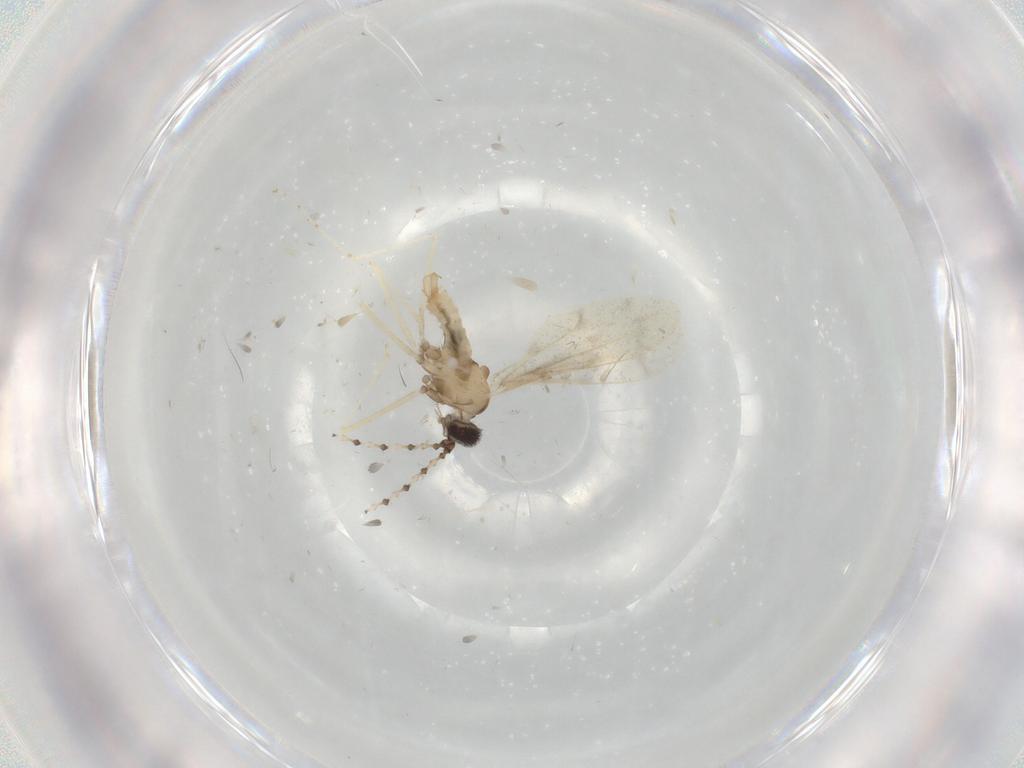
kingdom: Animalia
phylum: Arthropoda
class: Insecta
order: Diptera
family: Cecidomyiidae
